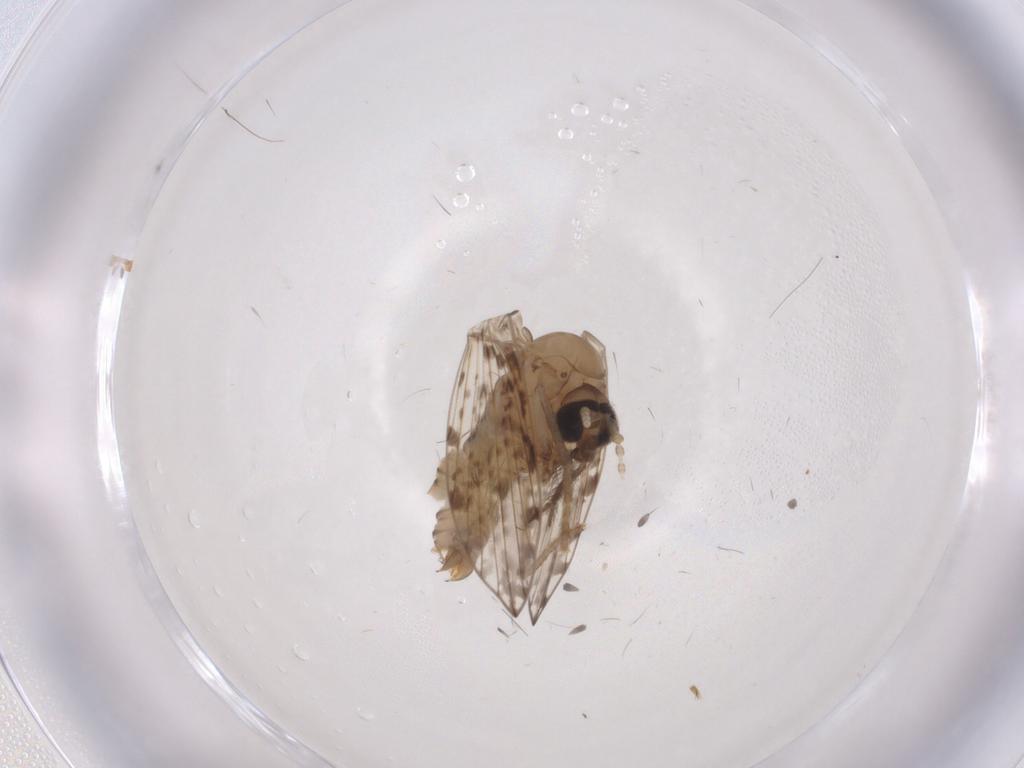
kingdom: Animalia
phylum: Arthropoda
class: Insecta
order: Diptera
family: Psychodidae
